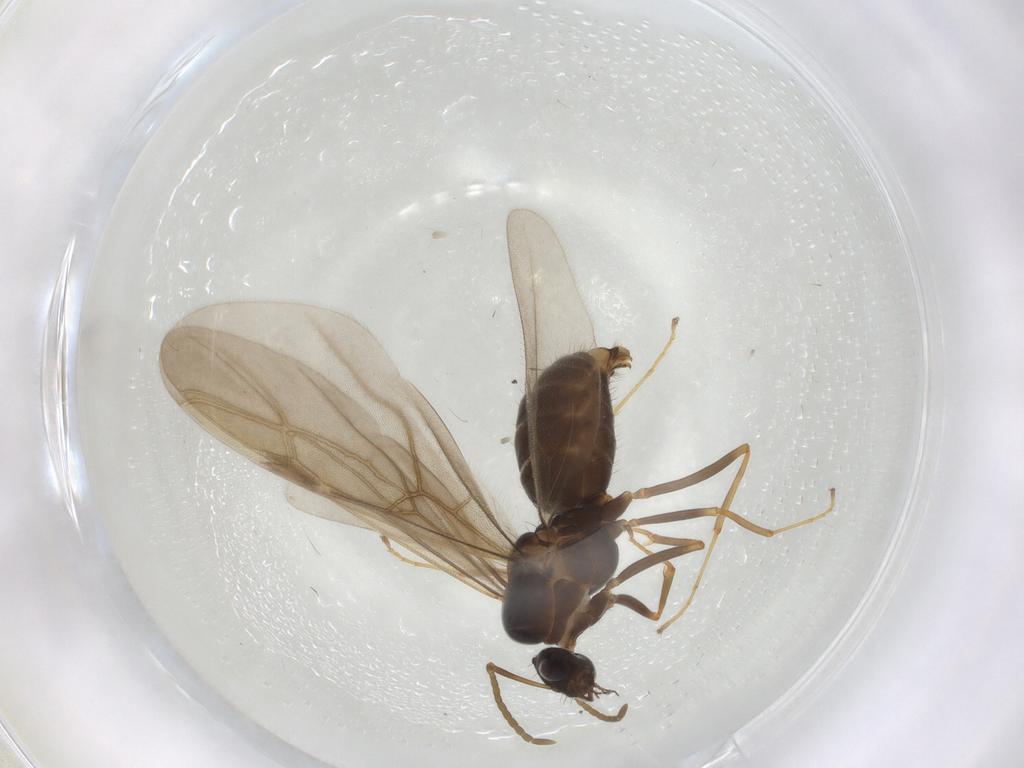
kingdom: Animalia
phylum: Arthropoda
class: Insecta
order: Hymenoptera
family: Formicidae
